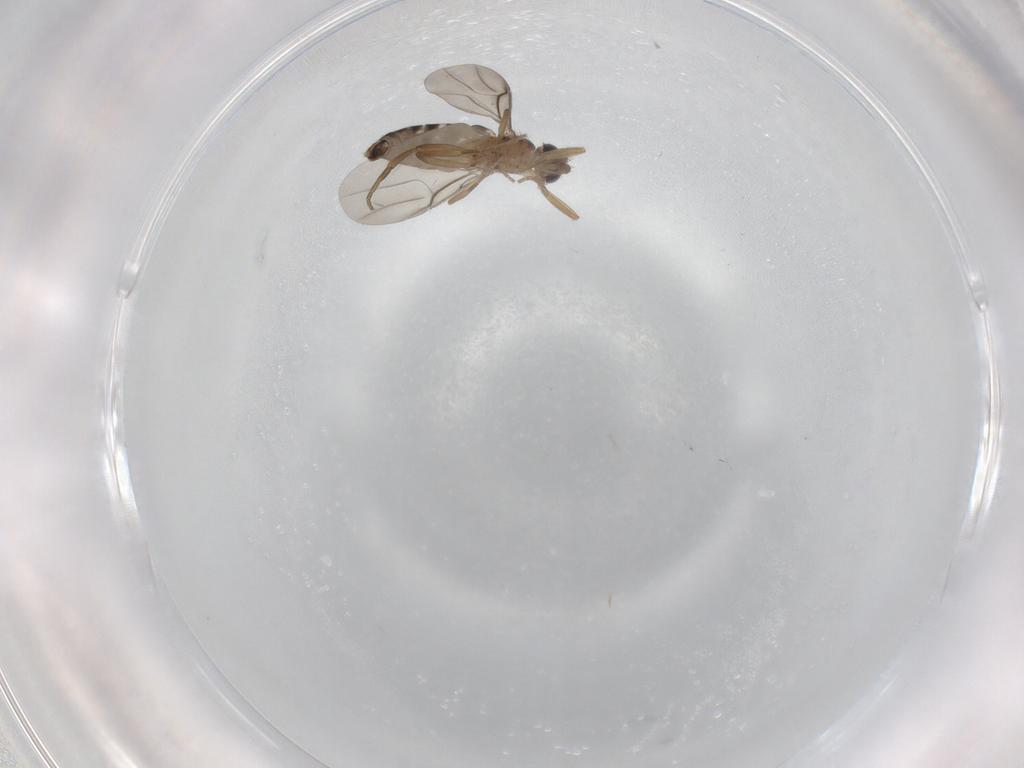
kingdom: Animalia
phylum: Arthropoda
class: Insecta
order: Diptera
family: Phoridae
